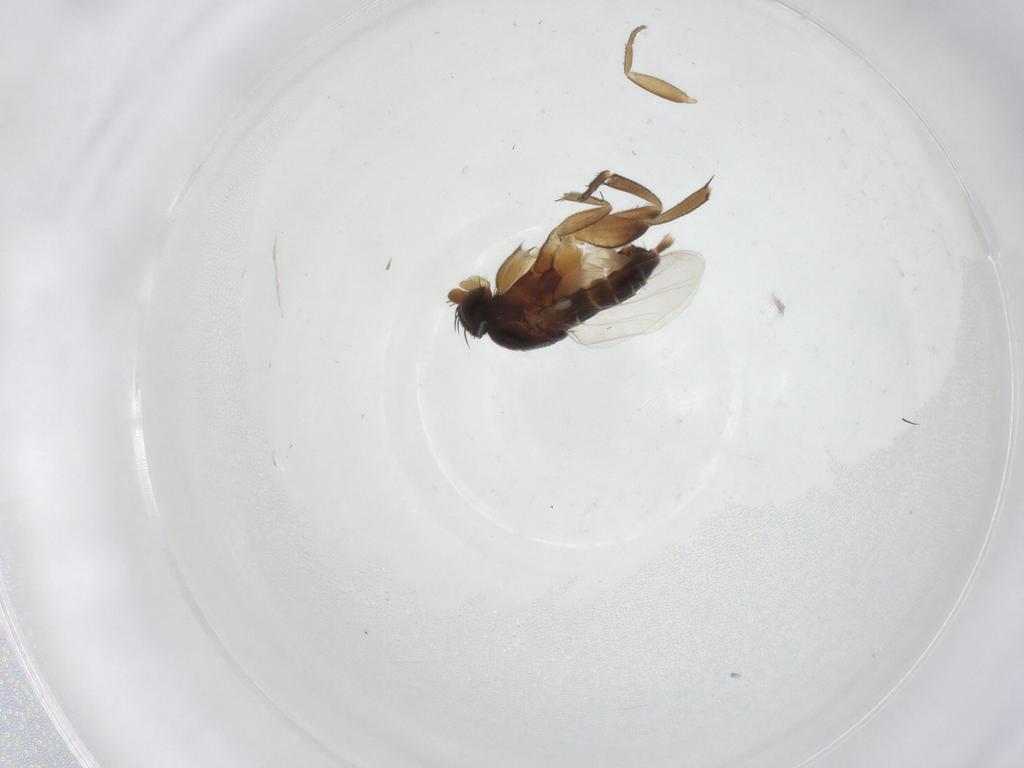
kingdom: Animalia
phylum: Arthropoda
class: Insecta
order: Diptera
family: Phoridae
